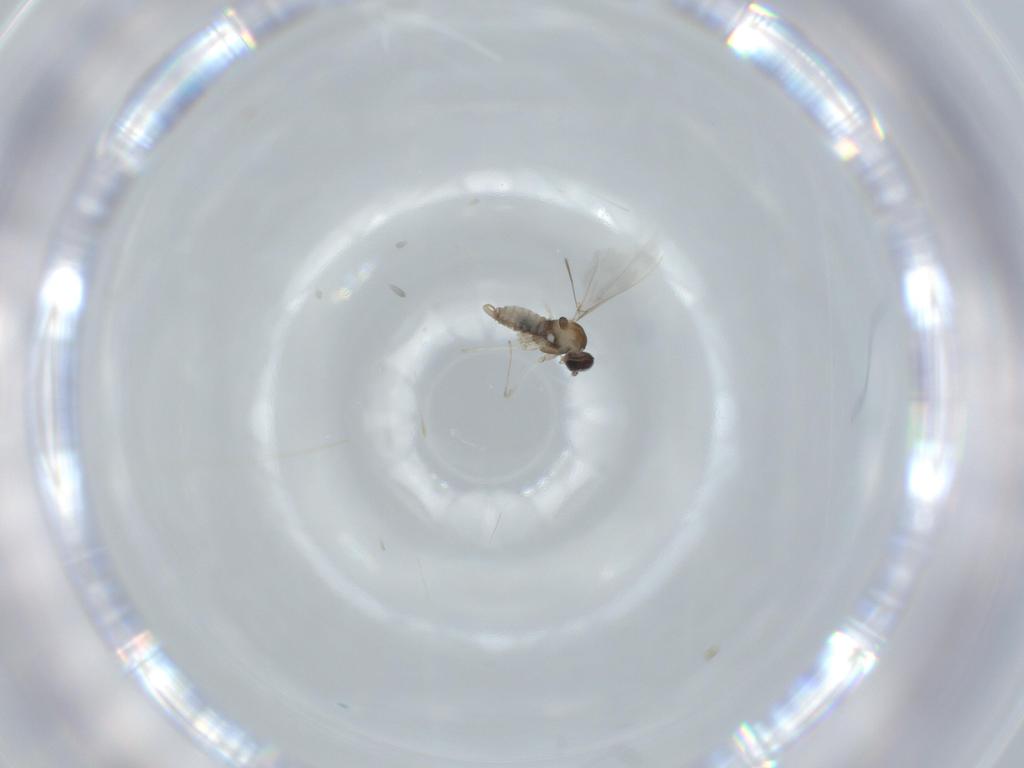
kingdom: Animalia
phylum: Arthropoda
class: Insecta
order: Diptera
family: Cecidomyiidae
